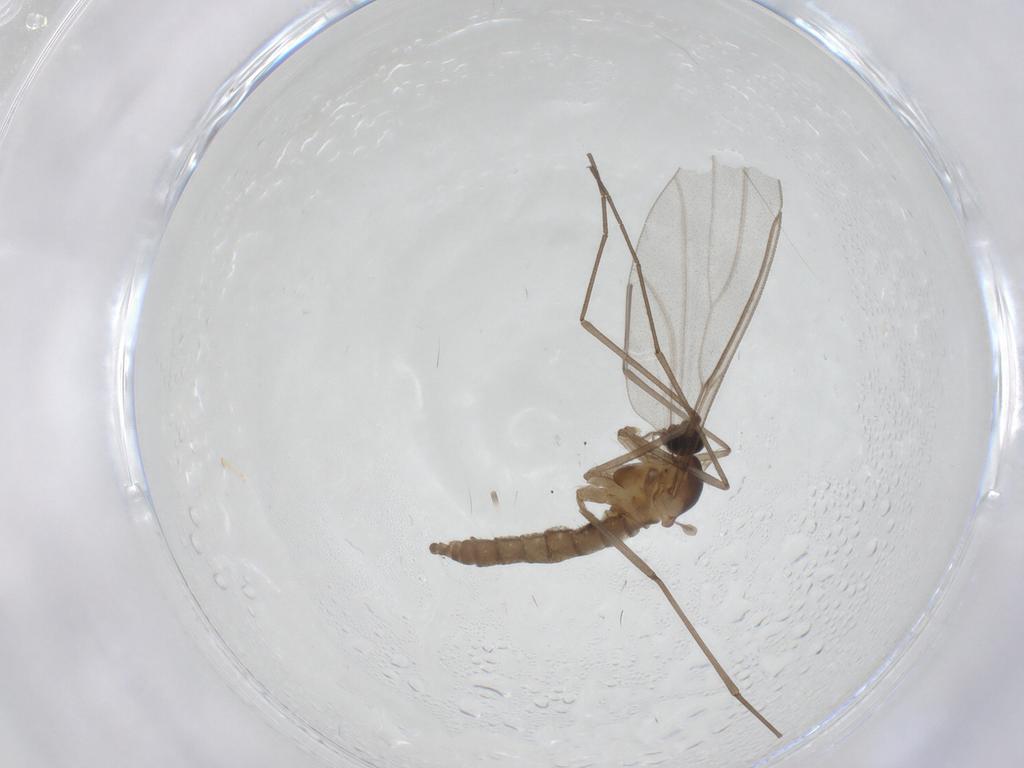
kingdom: Animalia
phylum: Arthropoda
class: Insecta
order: Diptera
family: Cecidomyiidae
